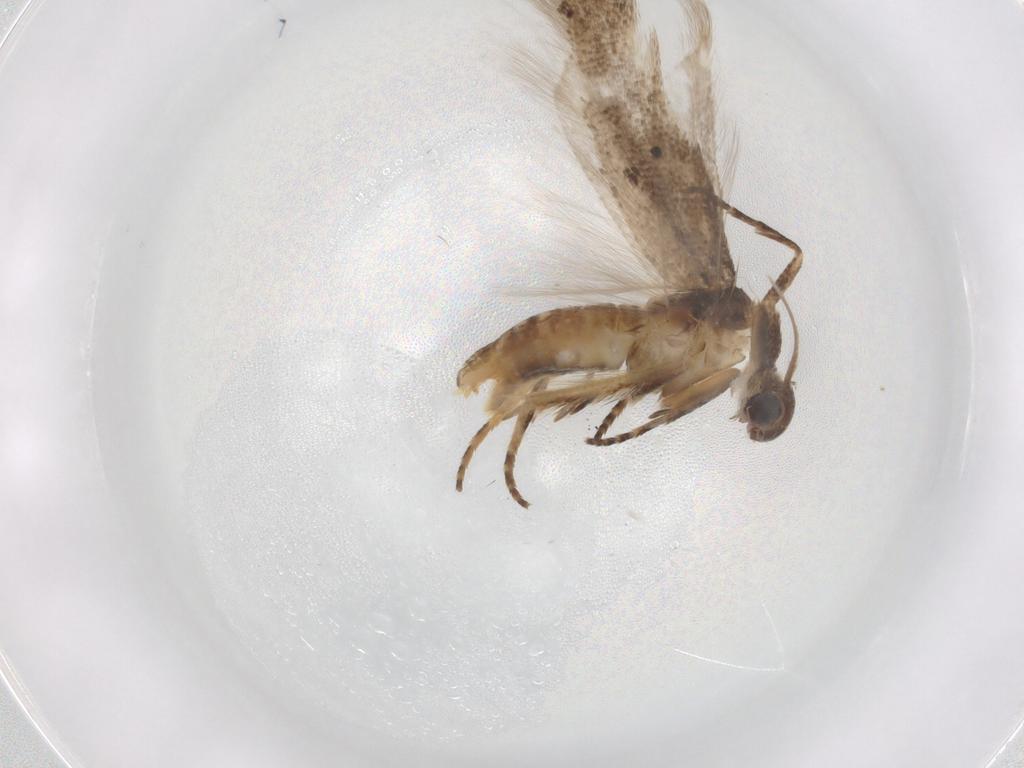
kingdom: Animalia
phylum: Arthropoda
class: Insecta
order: Lepidoptera
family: Gelechiidae
